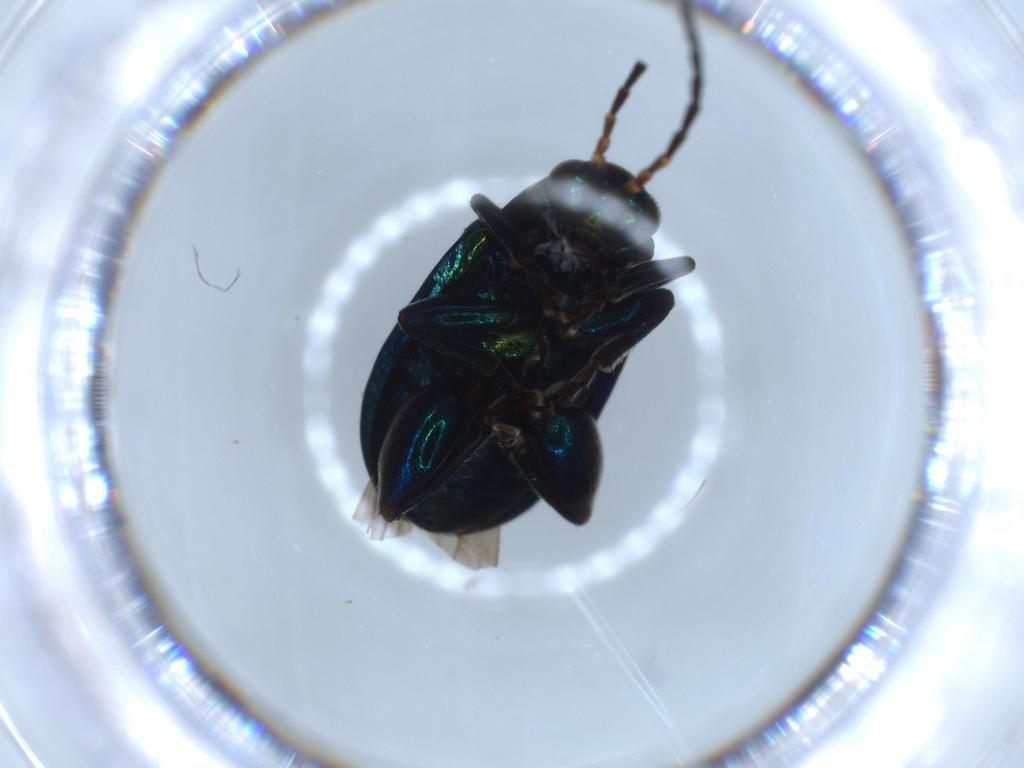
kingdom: Animalia
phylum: Arthropoda
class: Insecta
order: Coleoptera
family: Chrysomelidae
